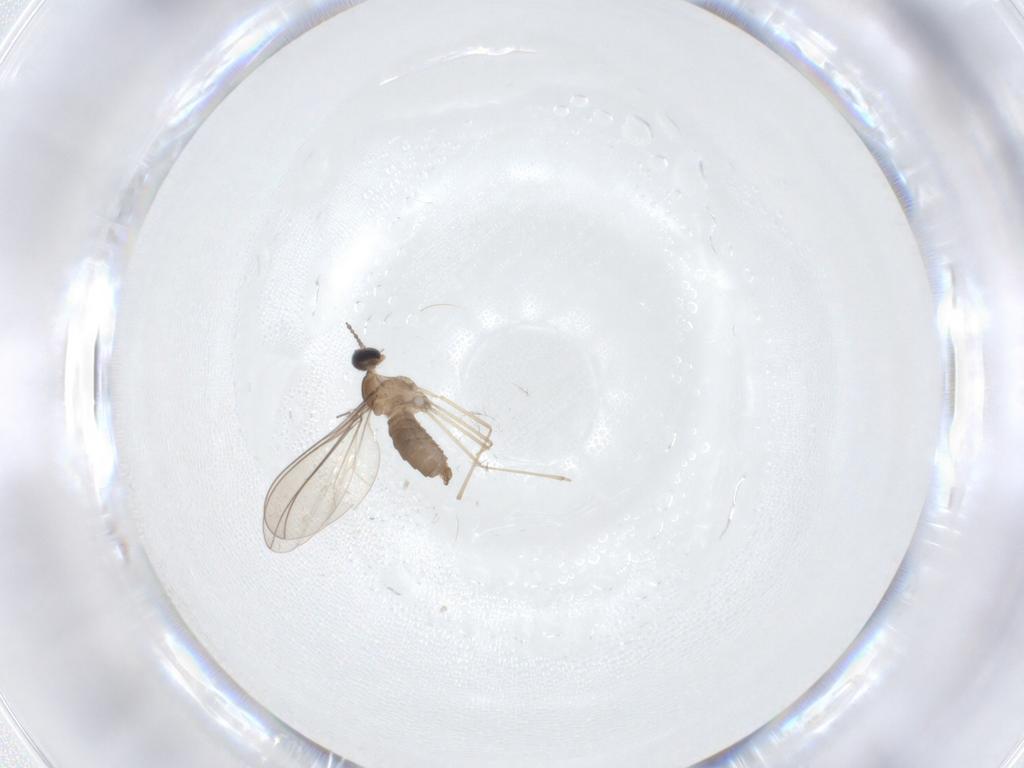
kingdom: Animalia
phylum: Arthropoda
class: Insecta
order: Diptera
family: Cecidomyiidae
